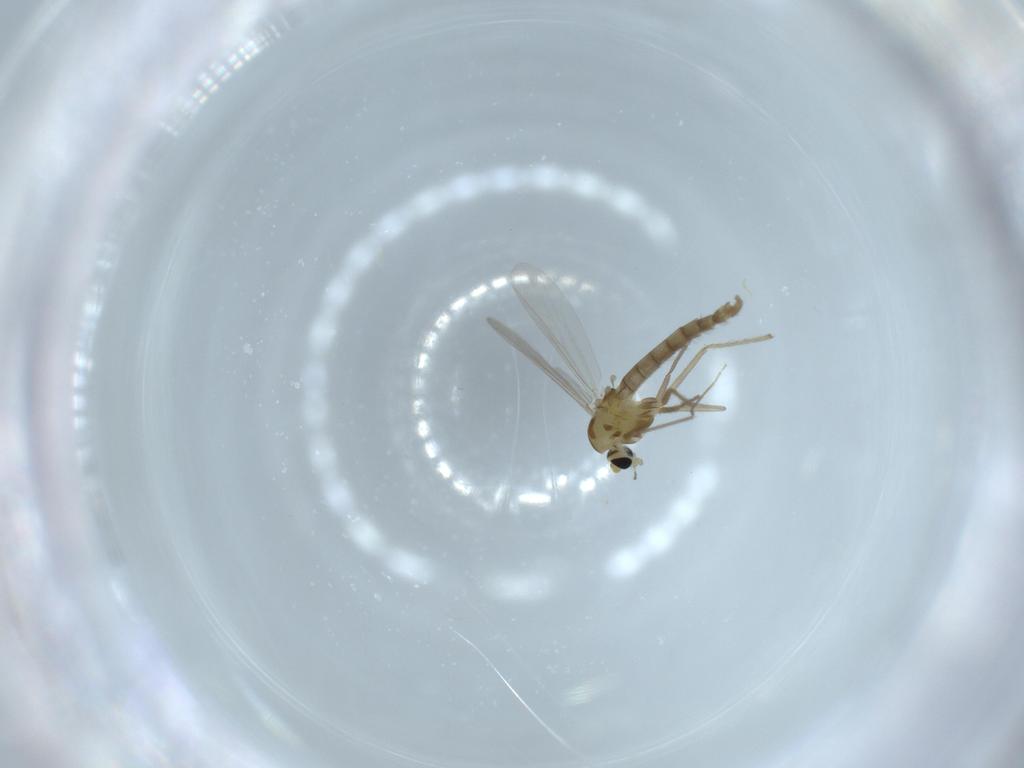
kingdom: Animalia
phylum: Arthropoda
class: Insecta
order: Diptera
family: Chironomidae
